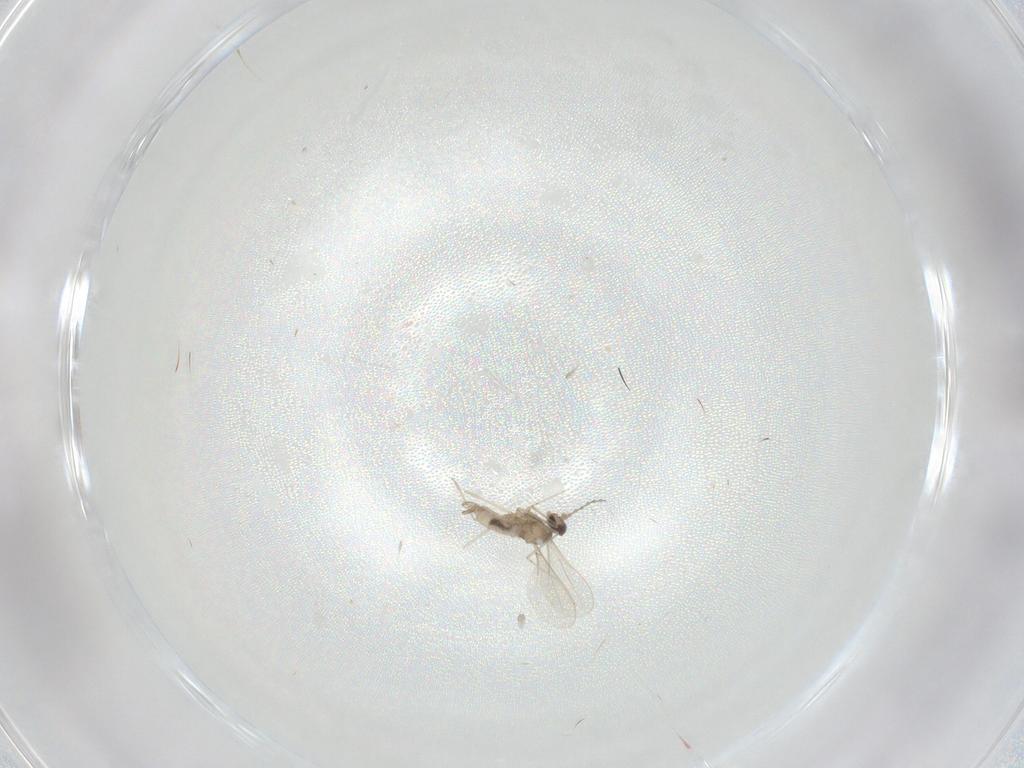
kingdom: Animalia
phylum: Arthropoda
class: Insecta
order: Diptera
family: Cecidomyiidae
